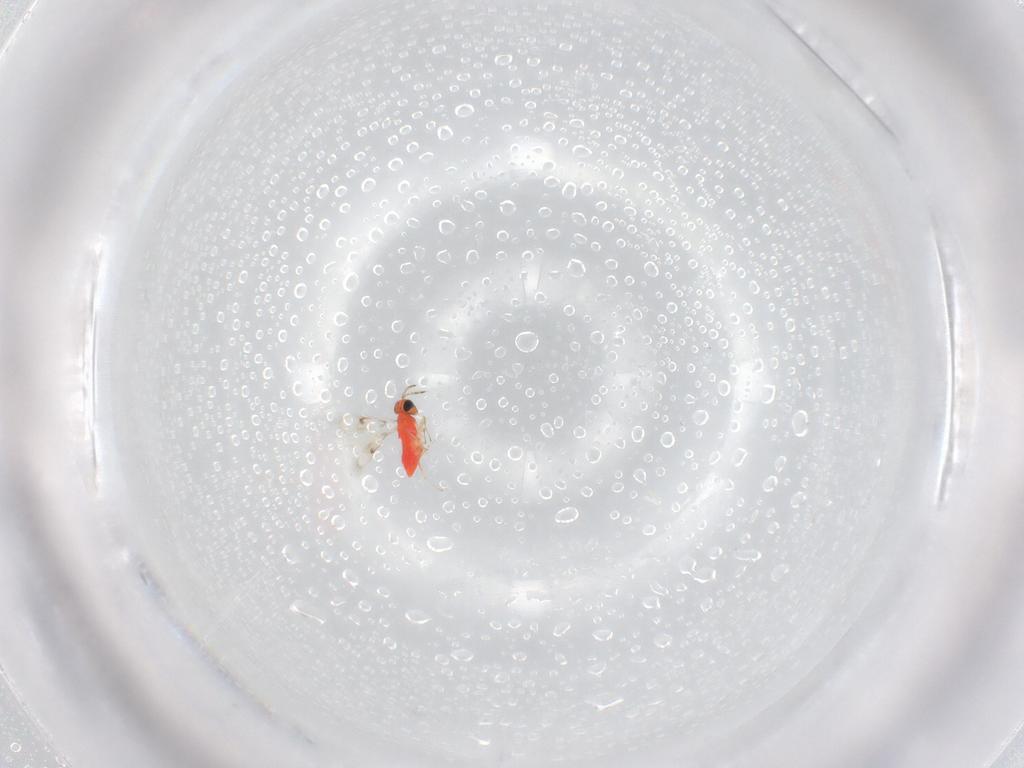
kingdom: Animalia
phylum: Arthropoda
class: Insecta
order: Hymenoptera
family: Trichogrammatidae
